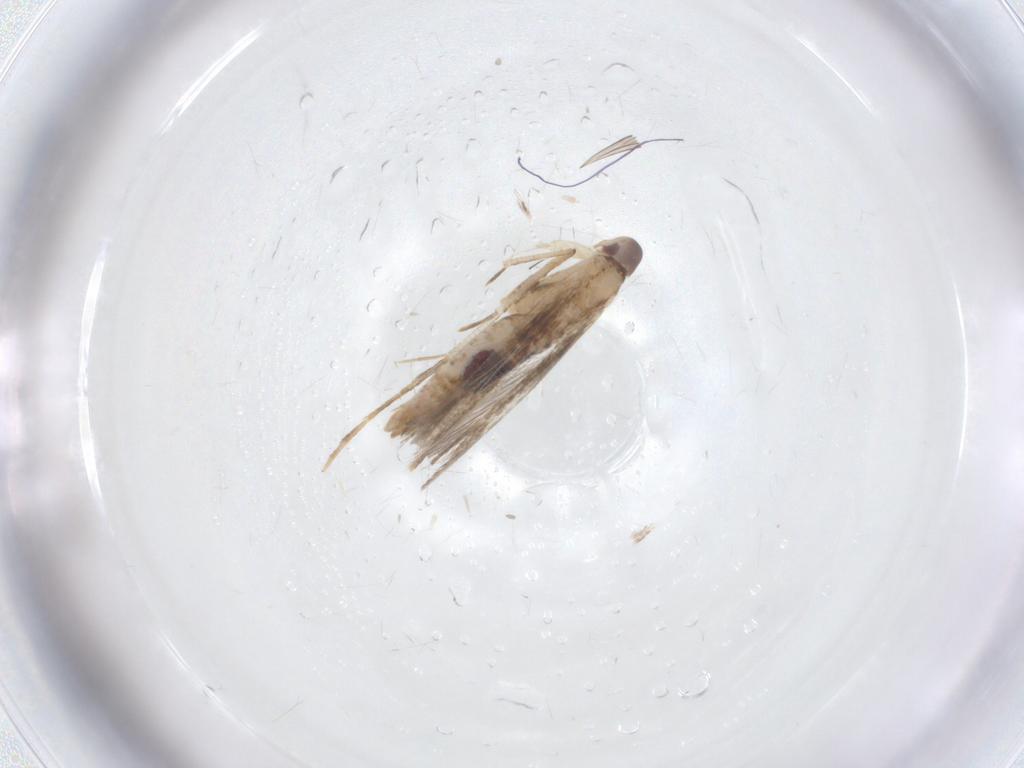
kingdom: Animalia
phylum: Arthropoda
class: Insecta
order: Lepidoptera
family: Cosmopterigidae
